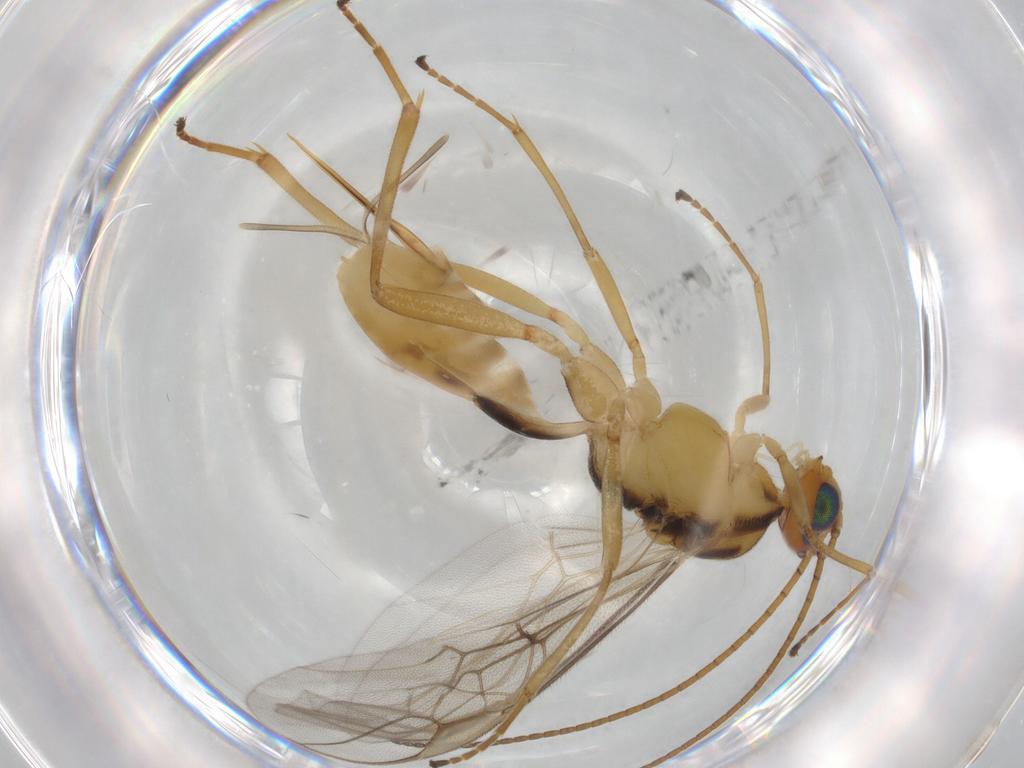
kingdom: Animalia
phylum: Arthropoda
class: Insecta
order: Hymenoptera
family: Braconidae
